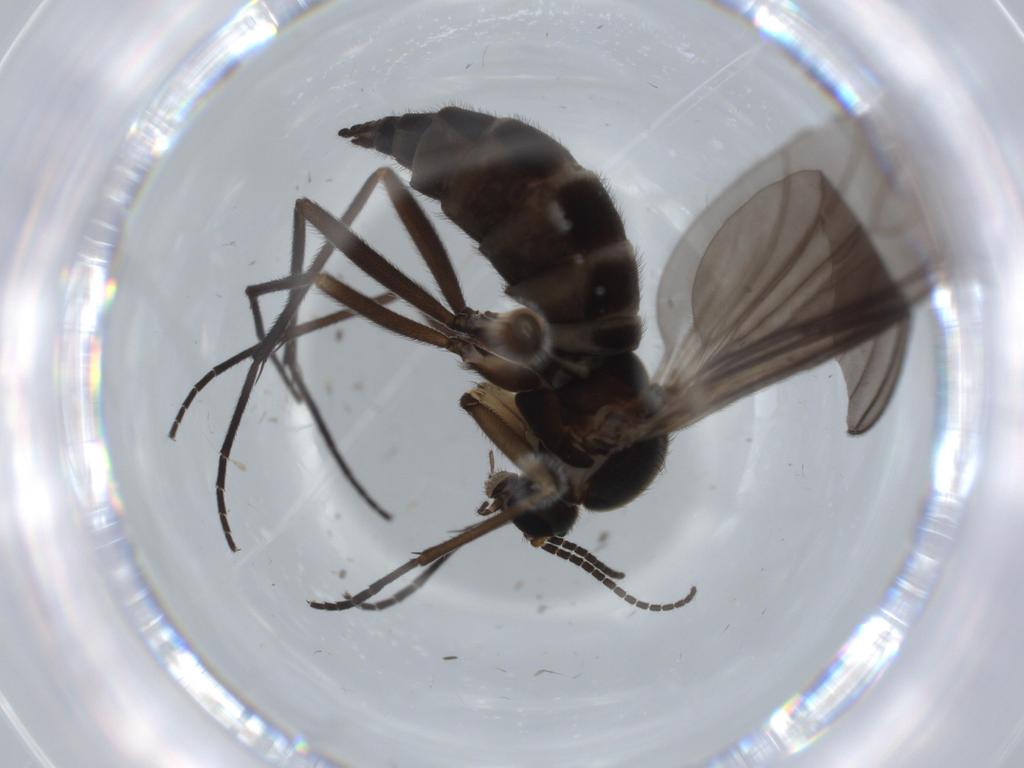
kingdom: Animalia
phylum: Arthropoda
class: Insecta
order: Diptera
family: Sciaridae
